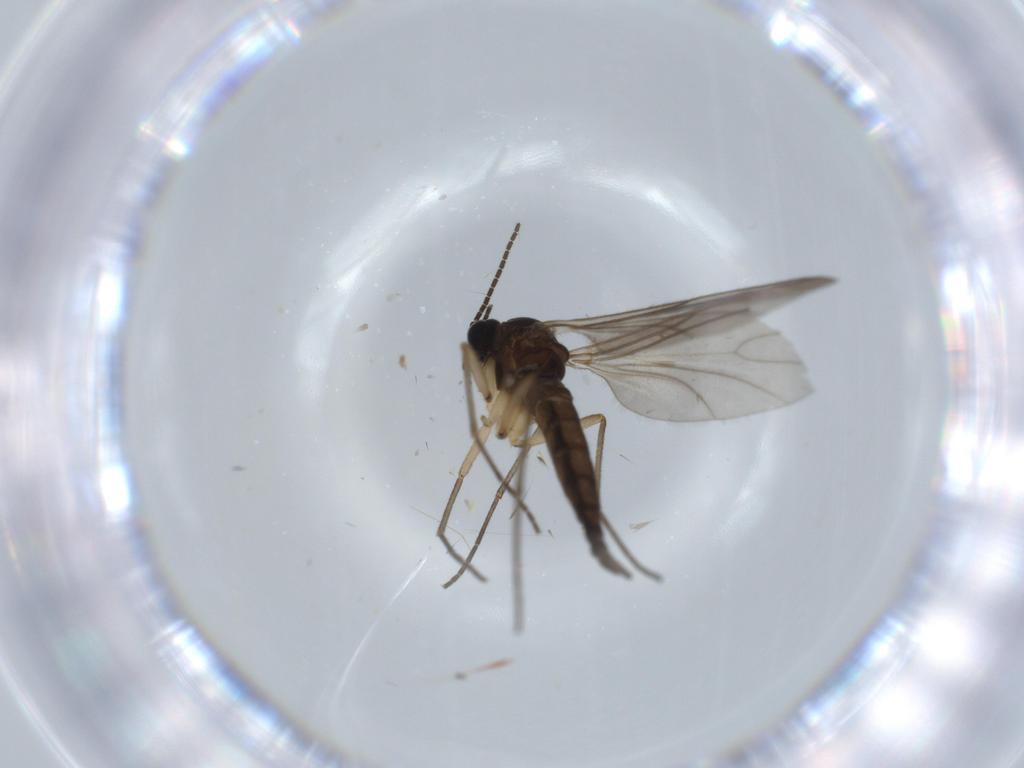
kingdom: Animalia
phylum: Arthropoda
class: Insecta
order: Diptera
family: Sciaridae
